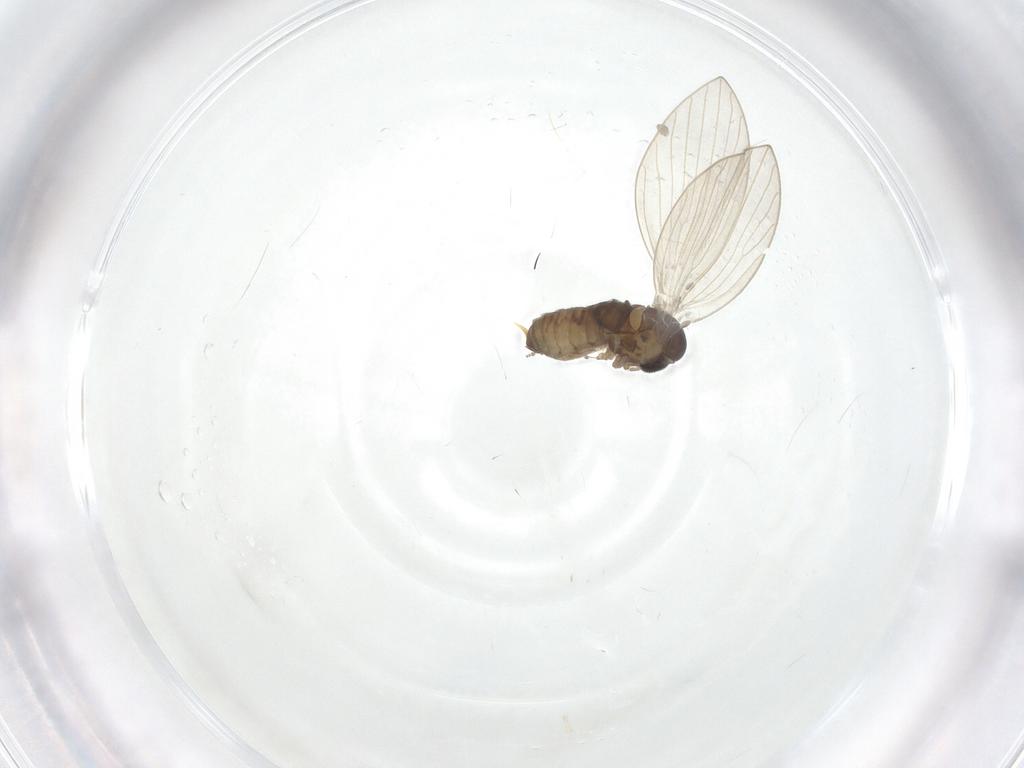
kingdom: Animalia
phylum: Arthropoda
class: Insecta
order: Diptera
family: Psychodidae
